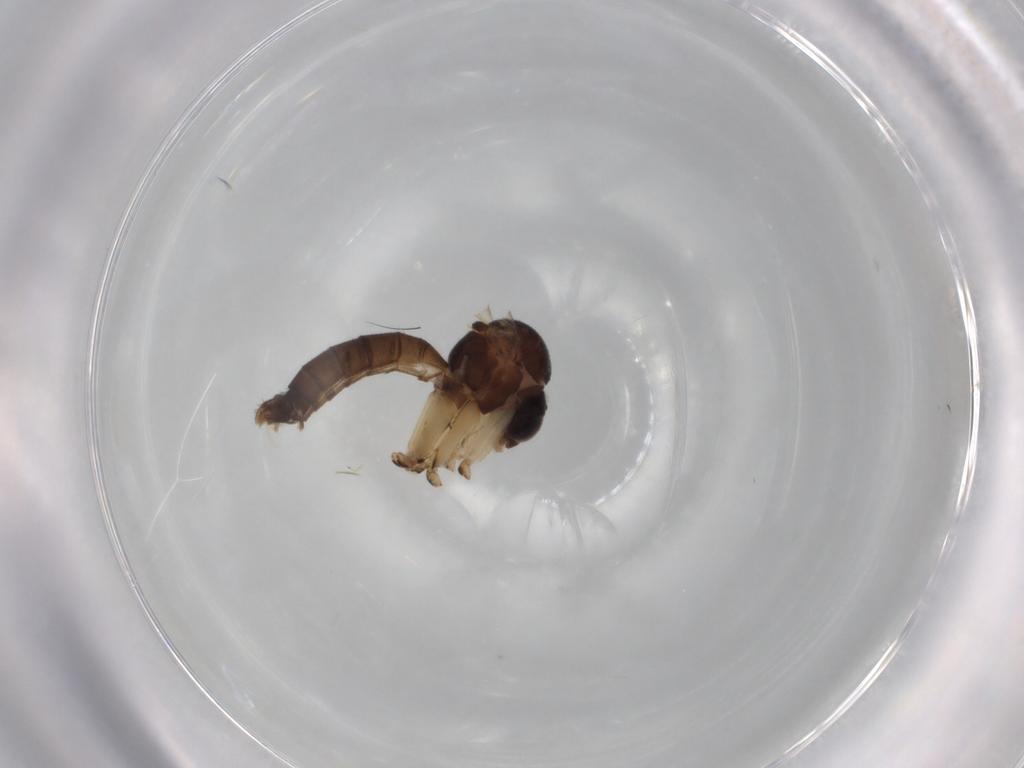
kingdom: Animalia
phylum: Arthropoda
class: Insecta
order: Diptera
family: Mycetophilidae
